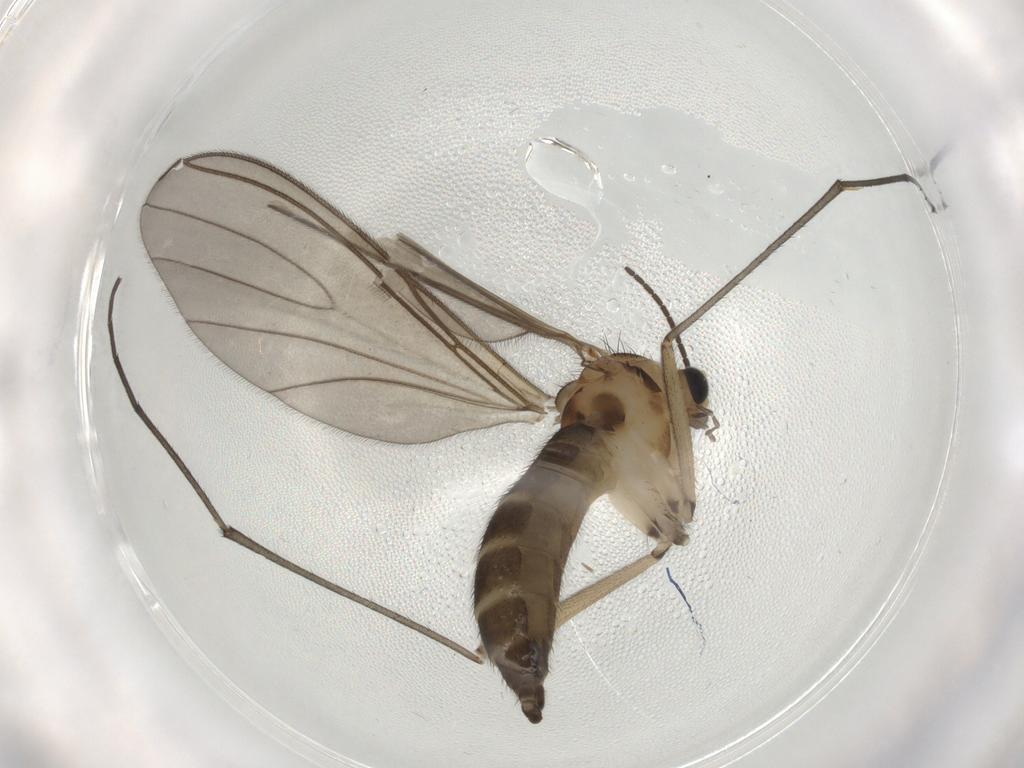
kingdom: Animalia
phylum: Arthropoda
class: Insecta
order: Diptera
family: Sciaridae
